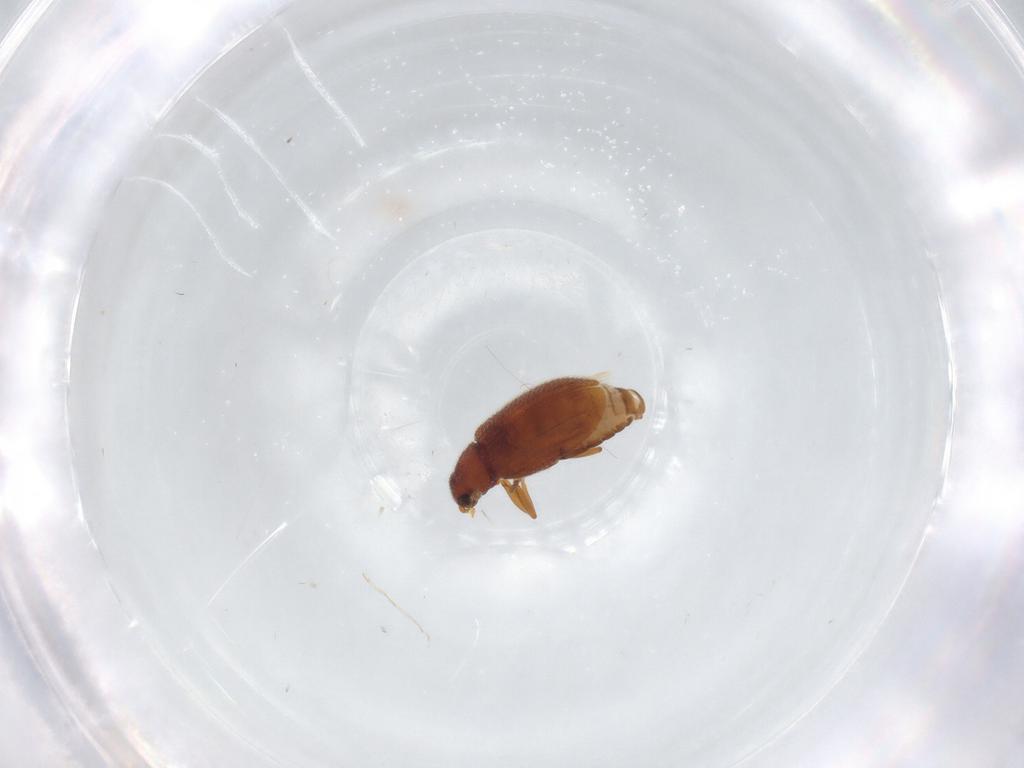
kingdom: Animalia
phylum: Arthropoda
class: Insecta
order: Coleoptera
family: Latridiidae
